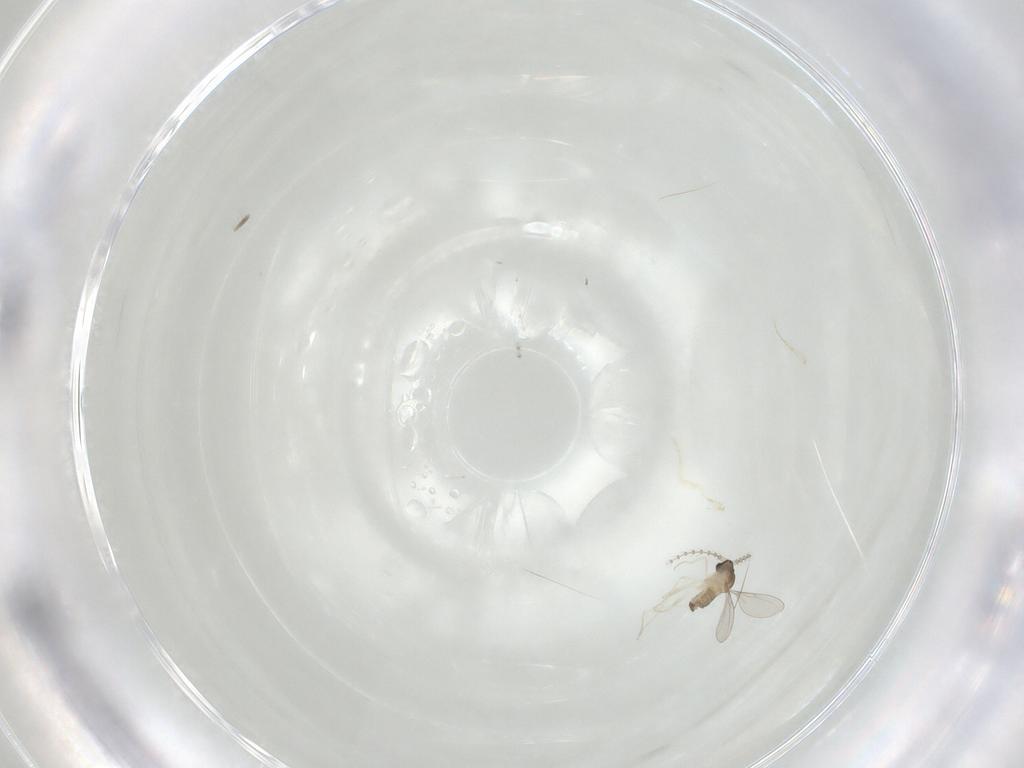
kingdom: Animalia
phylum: Arthropoda
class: Insecta
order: Diptera
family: Cecidomyiidae
